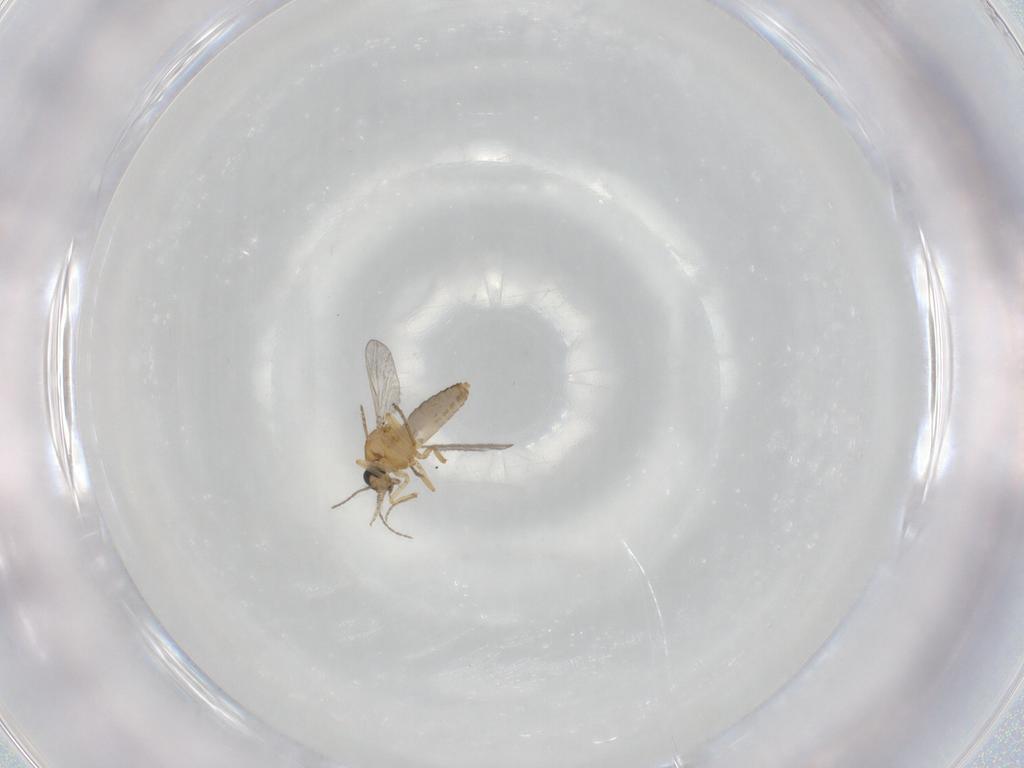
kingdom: Animalia
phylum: Arthropoda
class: Insecta
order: Diptera
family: Ceratopogonidae
